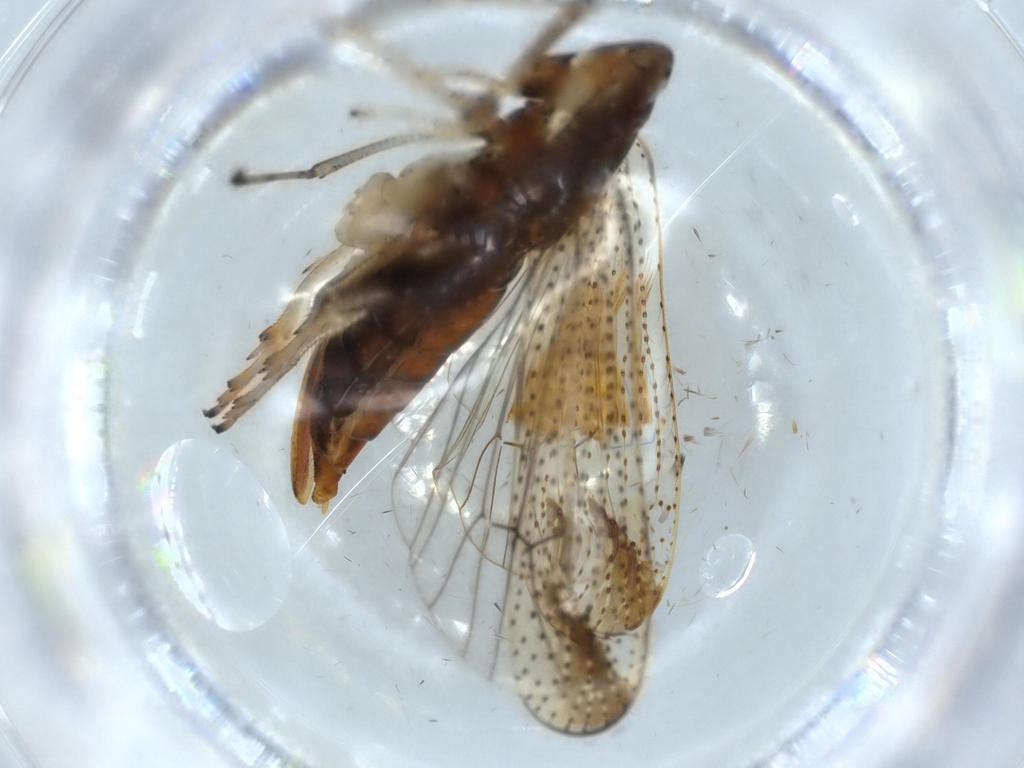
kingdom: Animalia
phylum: Arthropoda
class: Insecta
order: Hemiptera
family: Cicadellidae
